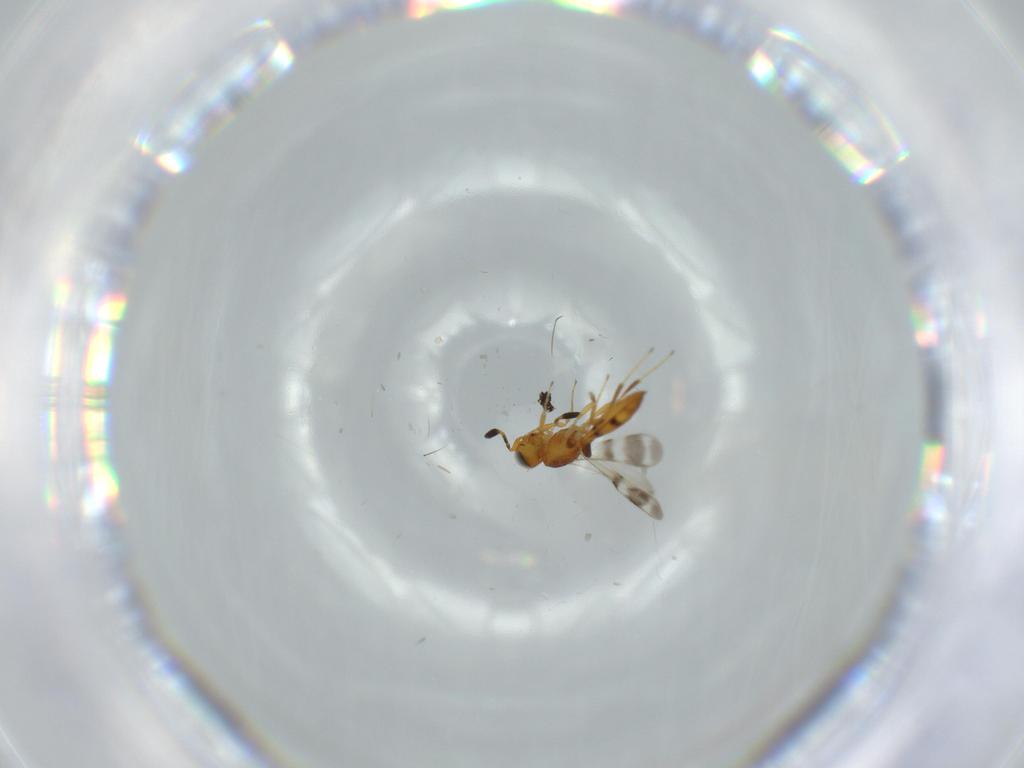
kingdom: Animalia
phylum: Arthropoda
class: Insecta
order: Hymenoptera
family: Scelionidae
